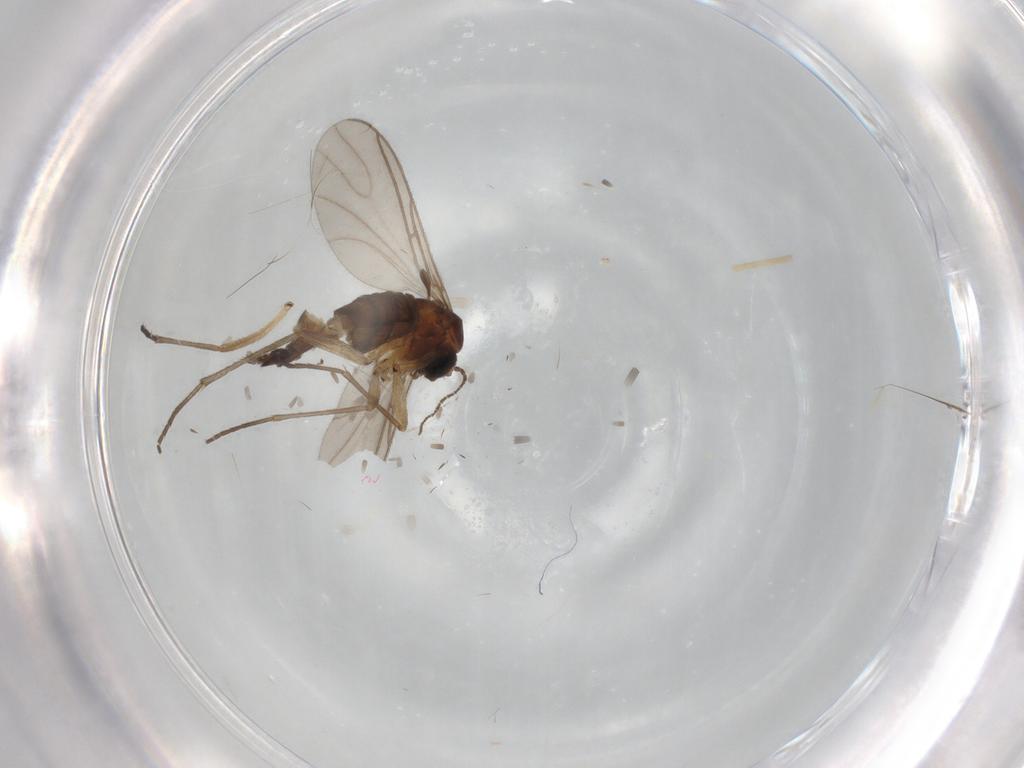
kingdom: Animalia
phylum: Arthropoda
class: Insecta
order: Diptera
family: Sciaridae
